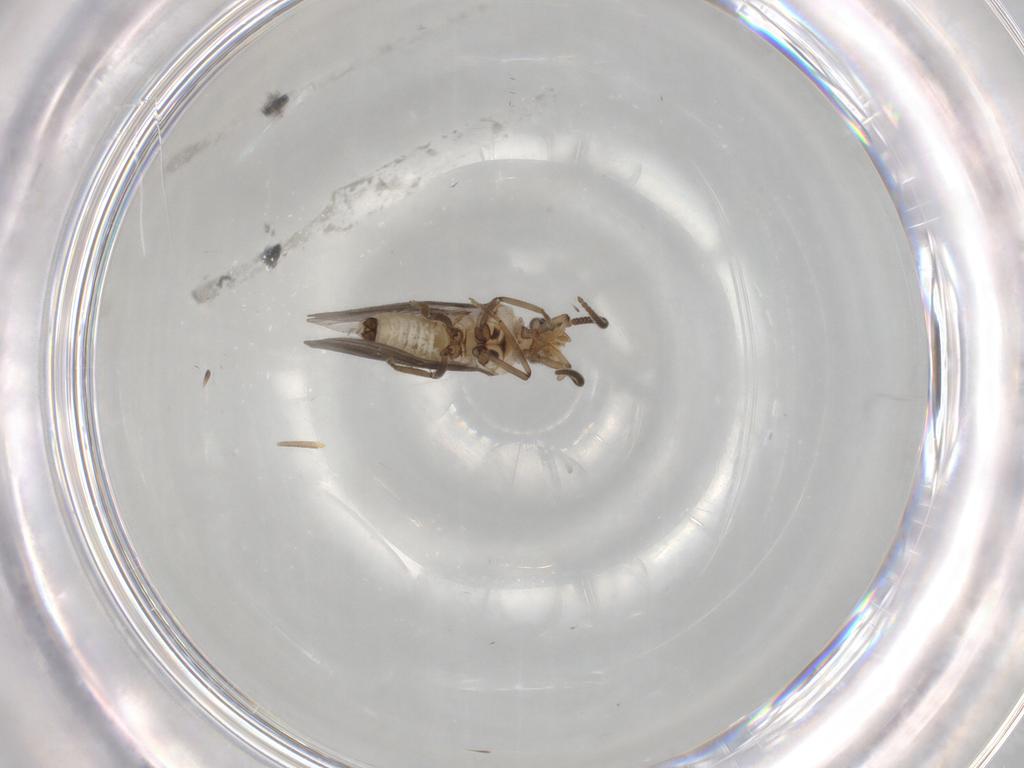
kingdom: Animalia
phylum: Arthropoda
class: Insecta
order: Neuroptera
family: Coniopterygidae
